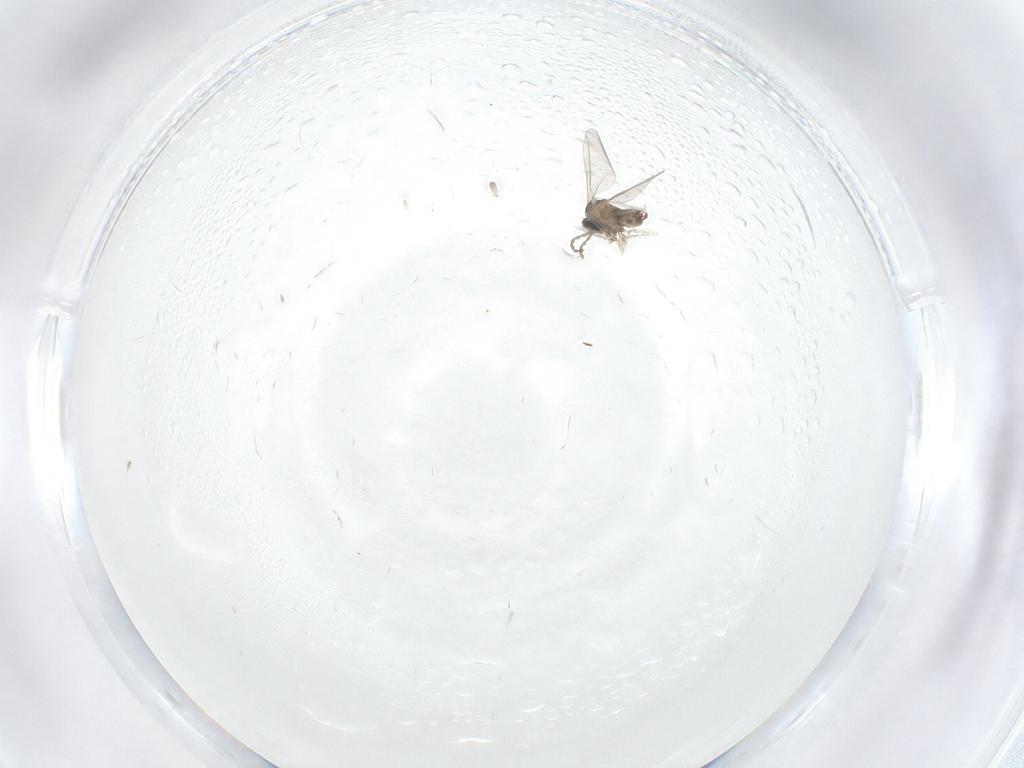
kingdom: Animalia
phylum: Arthropoda
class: Insecta
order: Diptera
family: Cecidomyiidae
